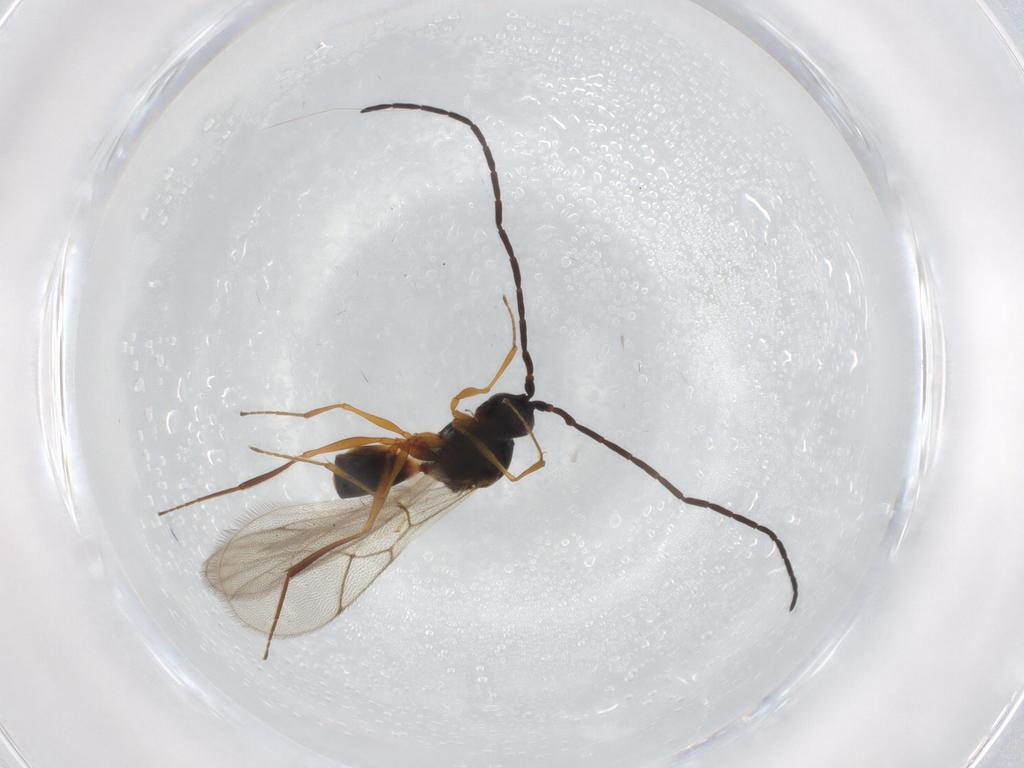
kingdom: Animalia
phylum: Arthropoda
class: Insecta
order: Hymenoptera
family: Figitidae
